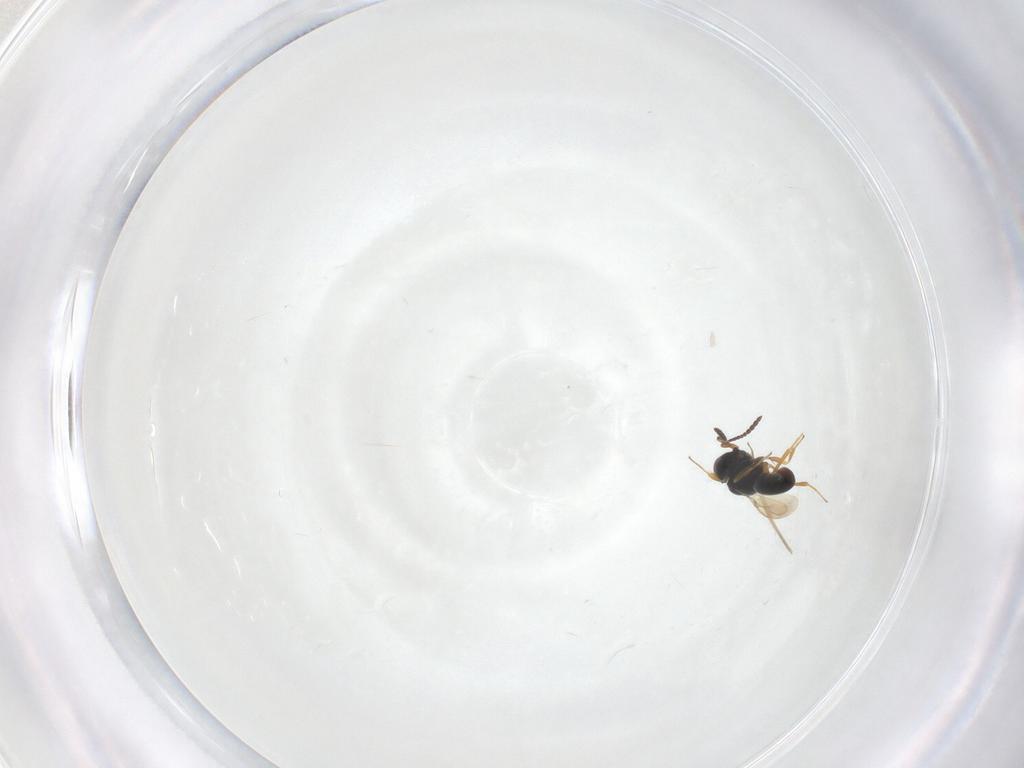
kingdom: Animalia
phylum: Arthropoda
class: Insecta
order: Hymenoptera
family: Scelionidae
